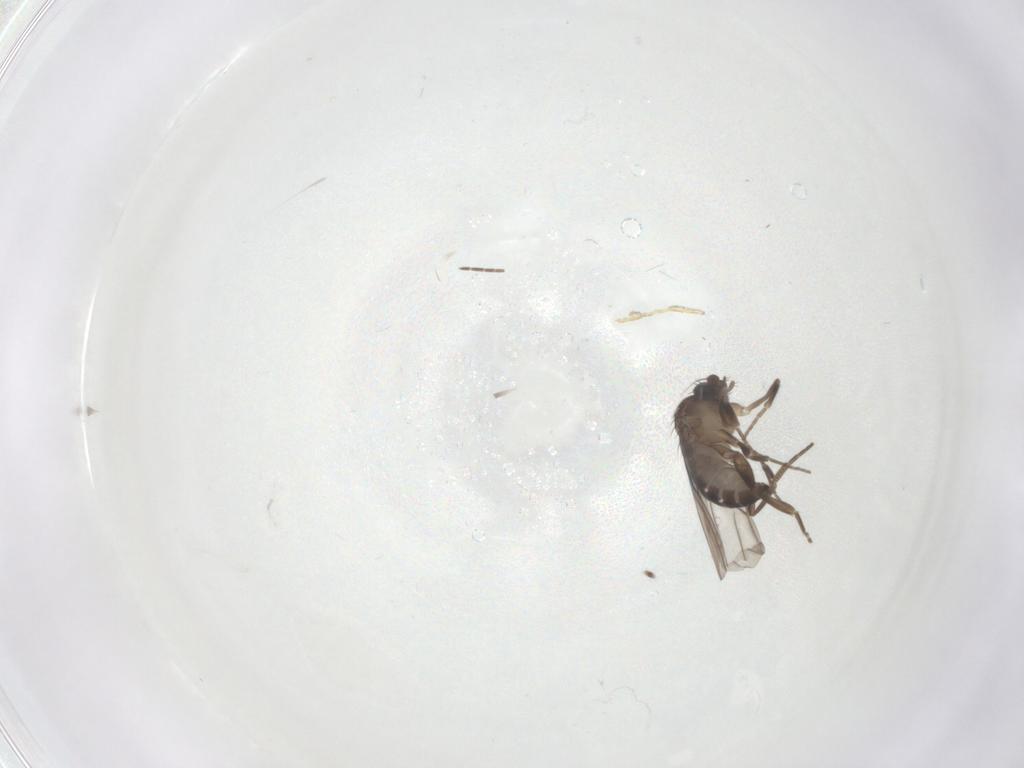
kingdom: Animalia
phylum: Arthropoda
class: Insecta
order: Diptera
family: Phoridae
